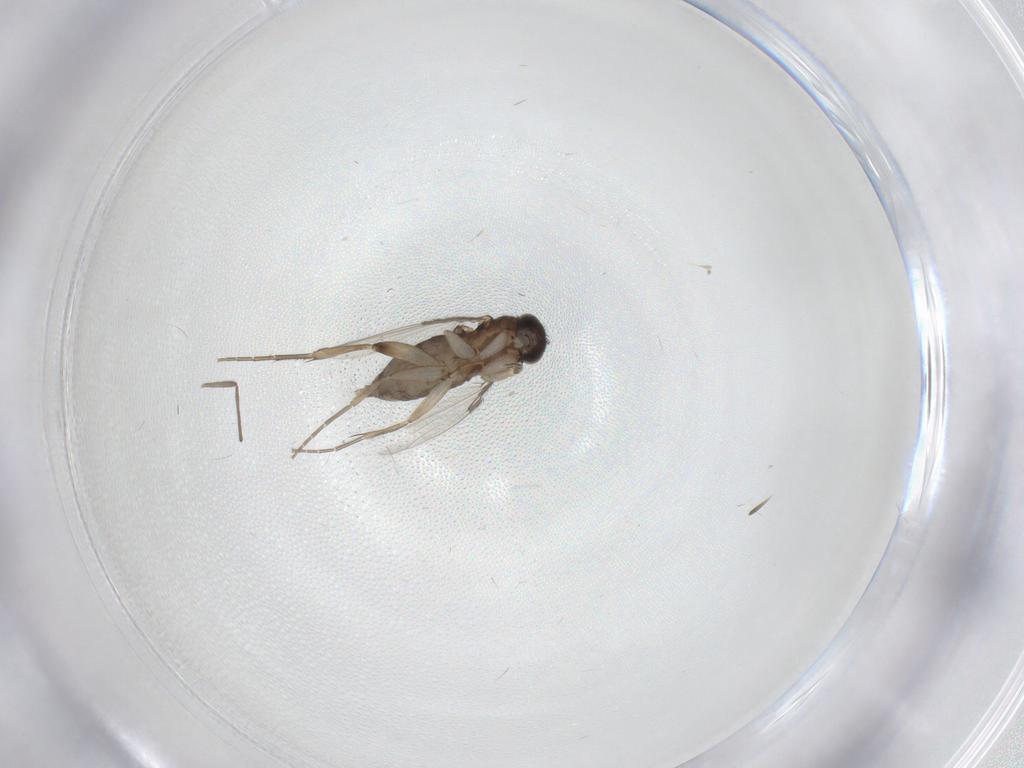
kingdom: Animalia
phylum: Arthropoda
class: Insecta
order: Diptera
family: Phoridae
